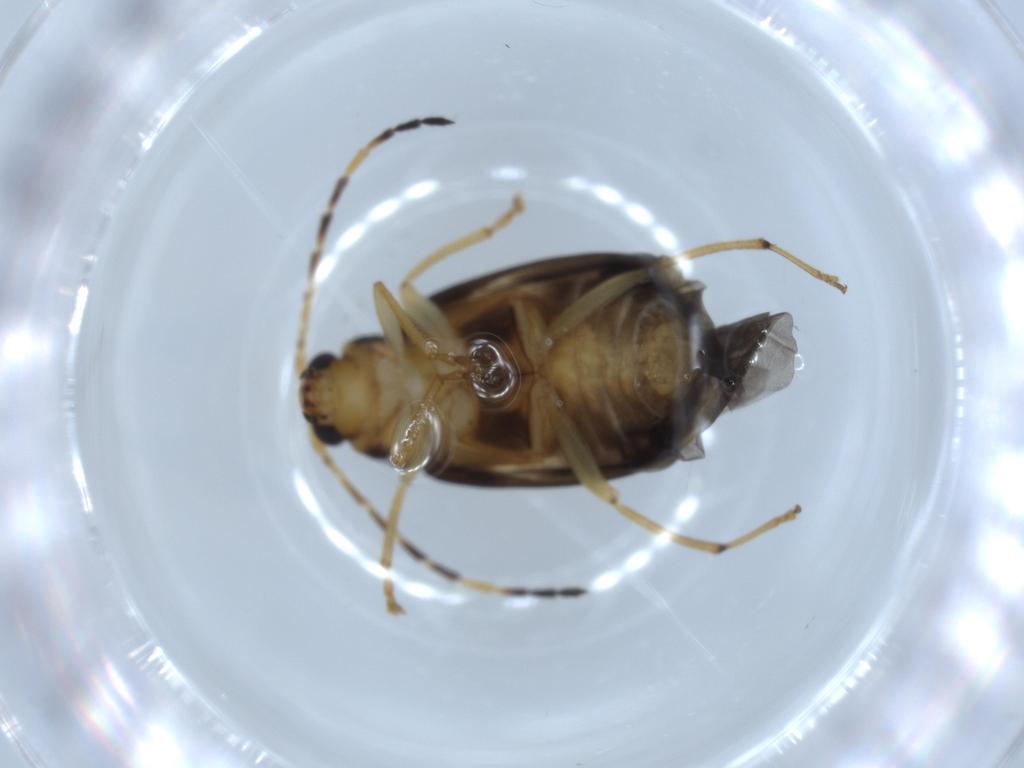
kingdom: Animalia
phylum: Arthropoda
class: Insecta
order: Coleoptera
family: Chrysomelidae
